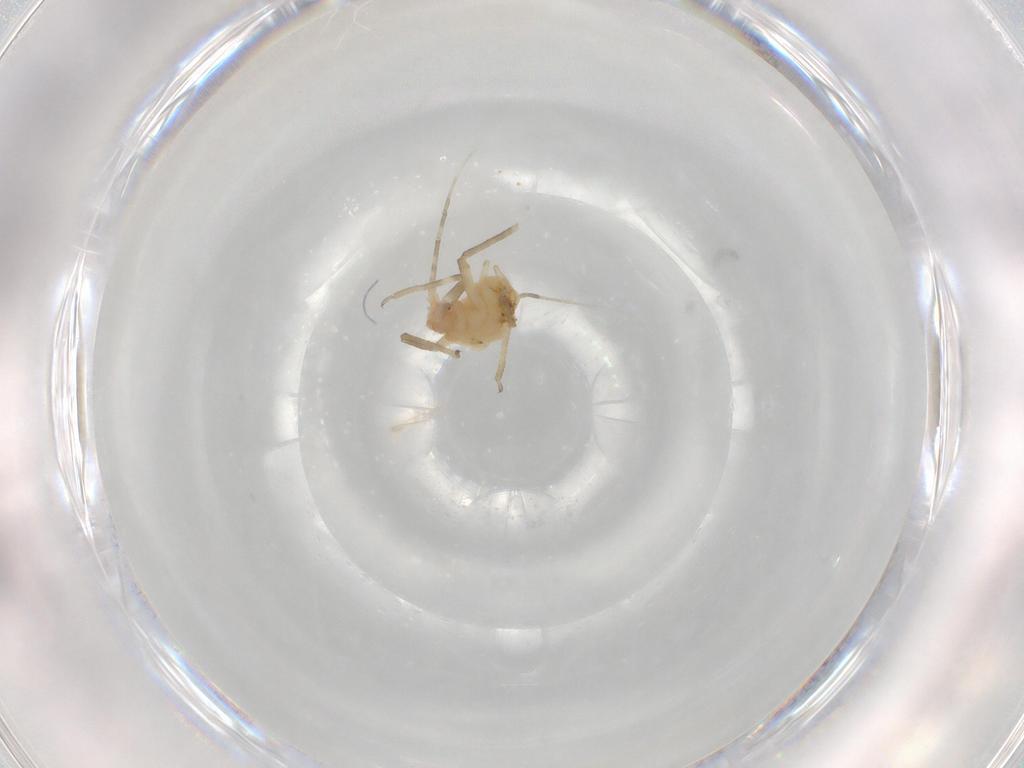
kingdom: Animalia
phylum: Arthropoda
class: Insecta
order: Hemiptera
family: Aphididae
